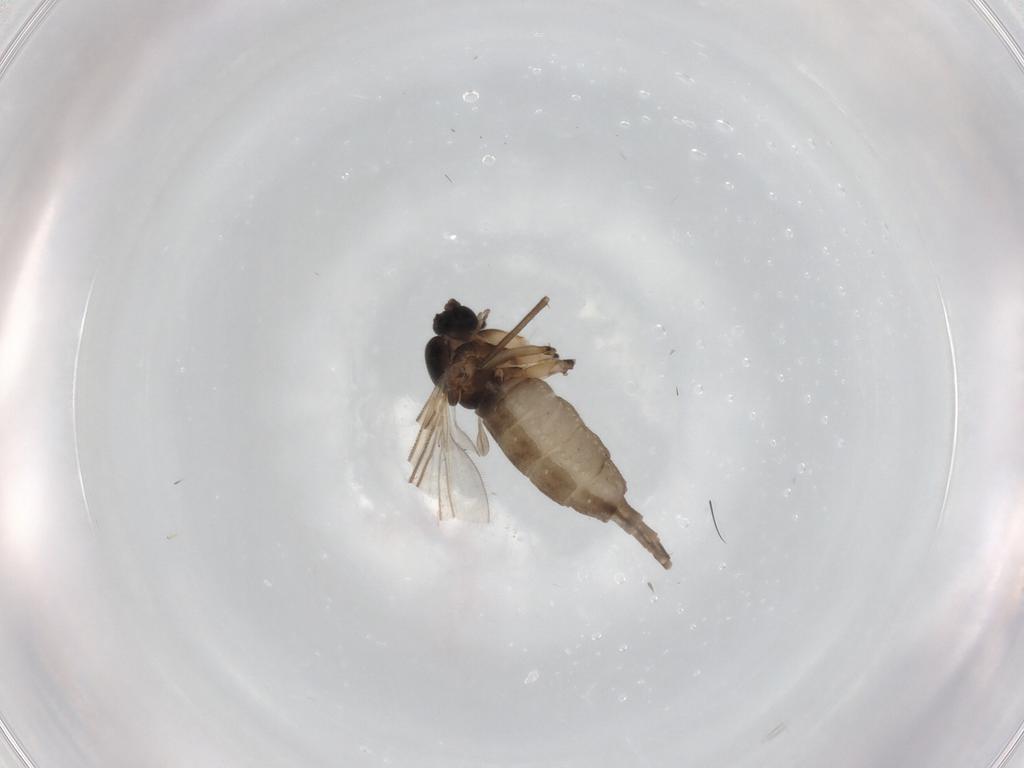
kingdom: Animalia
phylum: Arthropoda
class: Insecta
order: Diptera
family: Sciaridae
